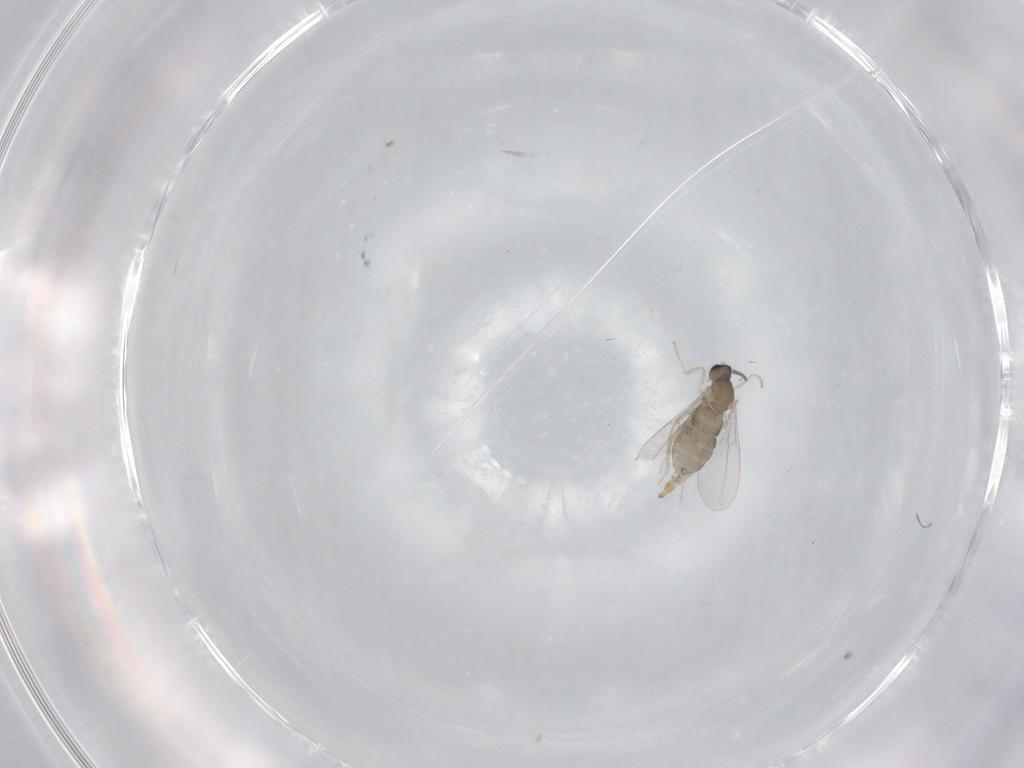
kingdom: Animalia
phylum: Arthropoda
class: Insecta
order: Diptera
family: Cecidomyiidae
